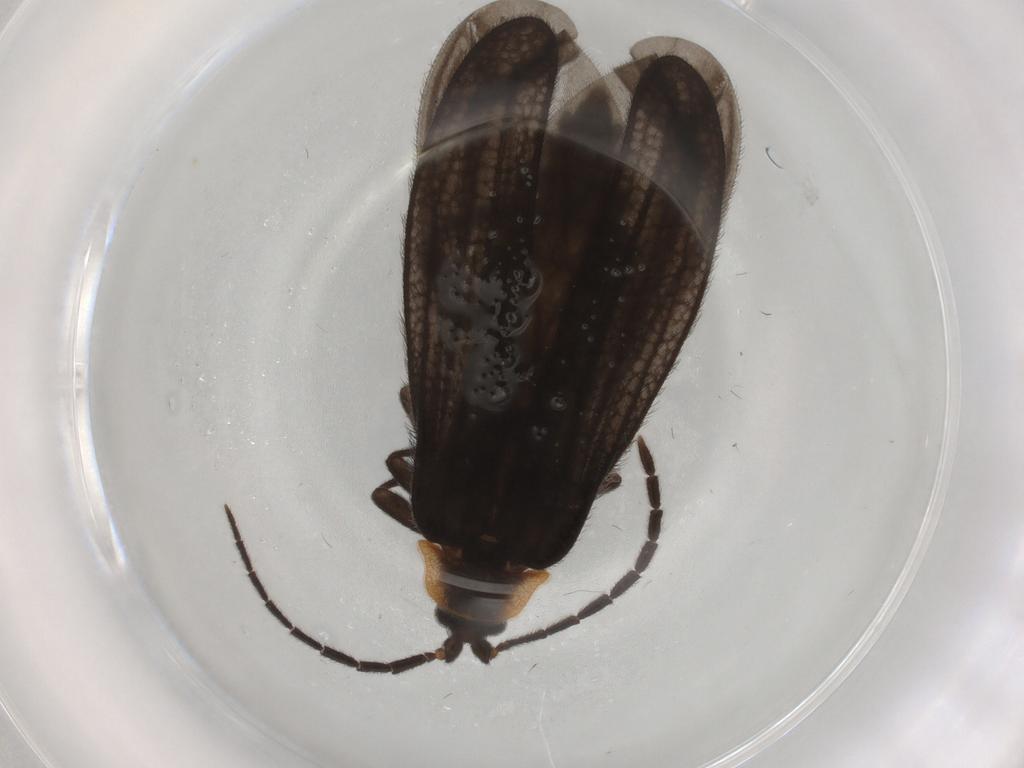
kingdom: Animalia
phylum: Arthropoda
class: Insecta
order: Coleoptera
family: Lycidae
